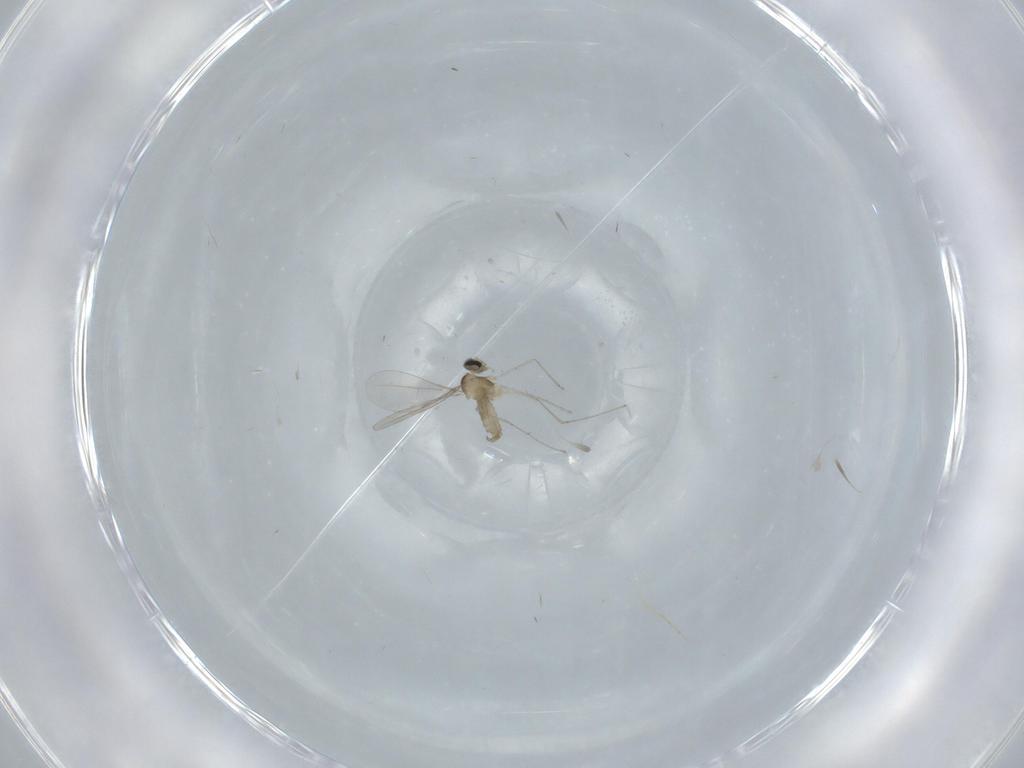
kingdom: Animalia
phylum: Arthropoda
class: Insecta
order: Diptera
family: Cecidomyiidae
